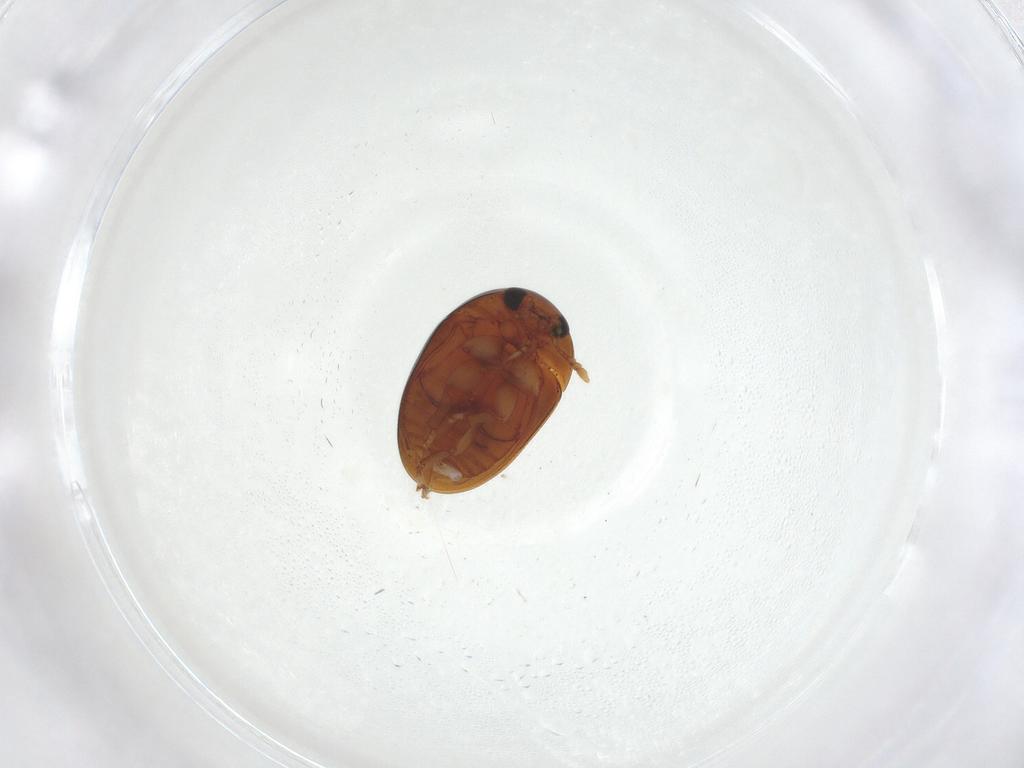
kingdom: Animalia
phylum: Arthropoda
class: Insecta
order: Coleoptera
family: Phalacridae
